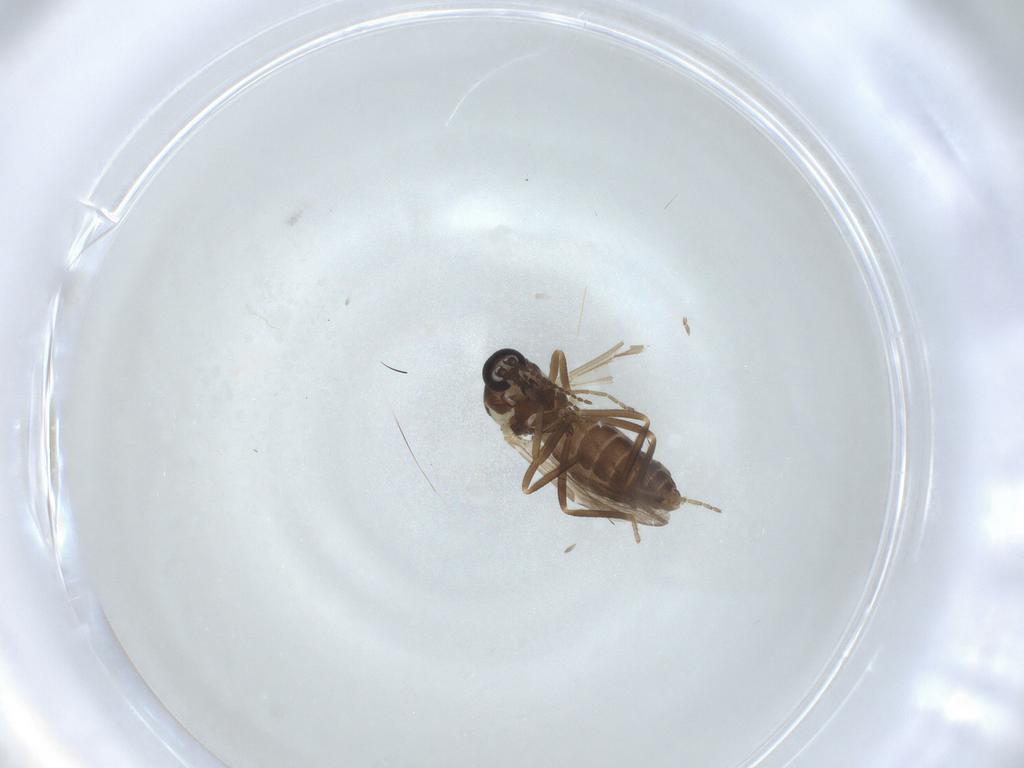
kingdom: Animalia
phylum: Arthropoda
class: Insecta
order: Diptera
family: Ceratopogonidae
